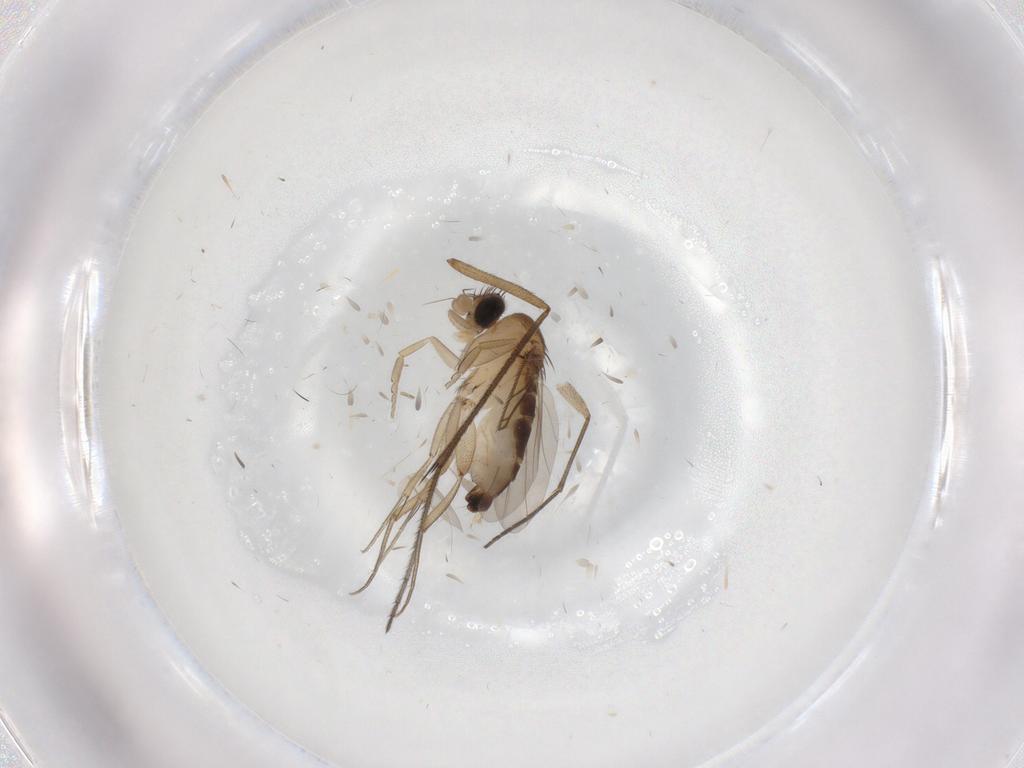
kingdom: Animalia
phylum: Arthropoda
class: Insecta
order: Diptera
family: Phoridae
